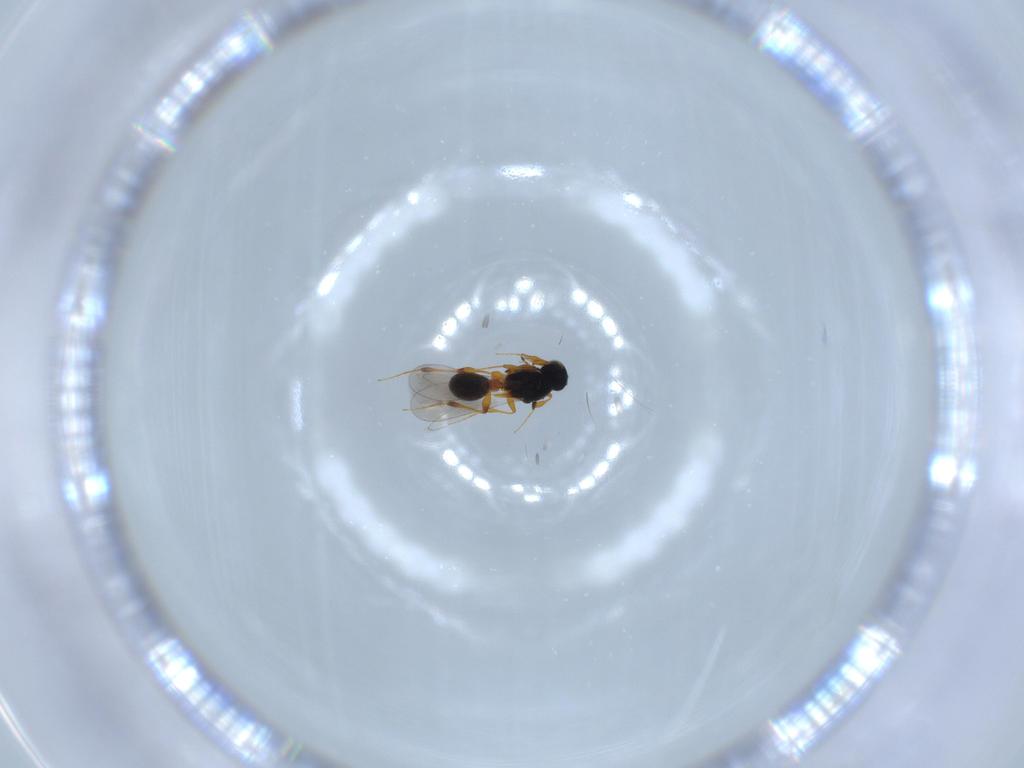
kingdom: Animalia
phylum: Arthropoda
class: Insecta
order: Hymenoptera
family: Platygastridae
